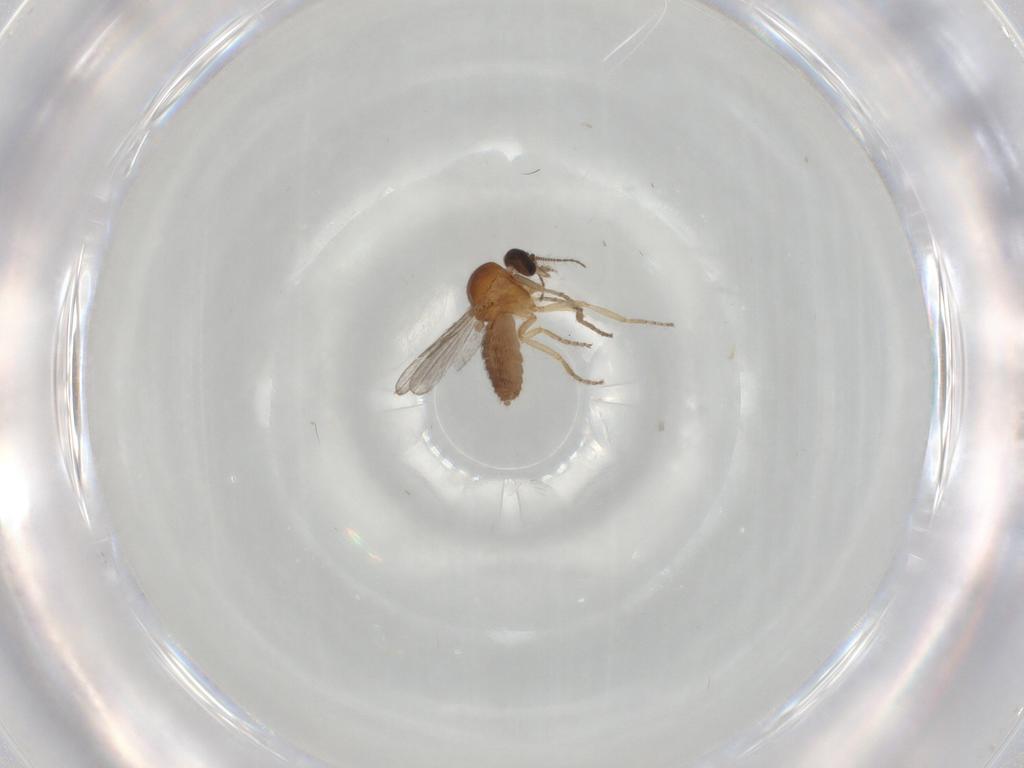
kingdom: Animalia
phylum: Arthropoda
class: Insecta
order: Diptera
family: Ceratopogonidae
